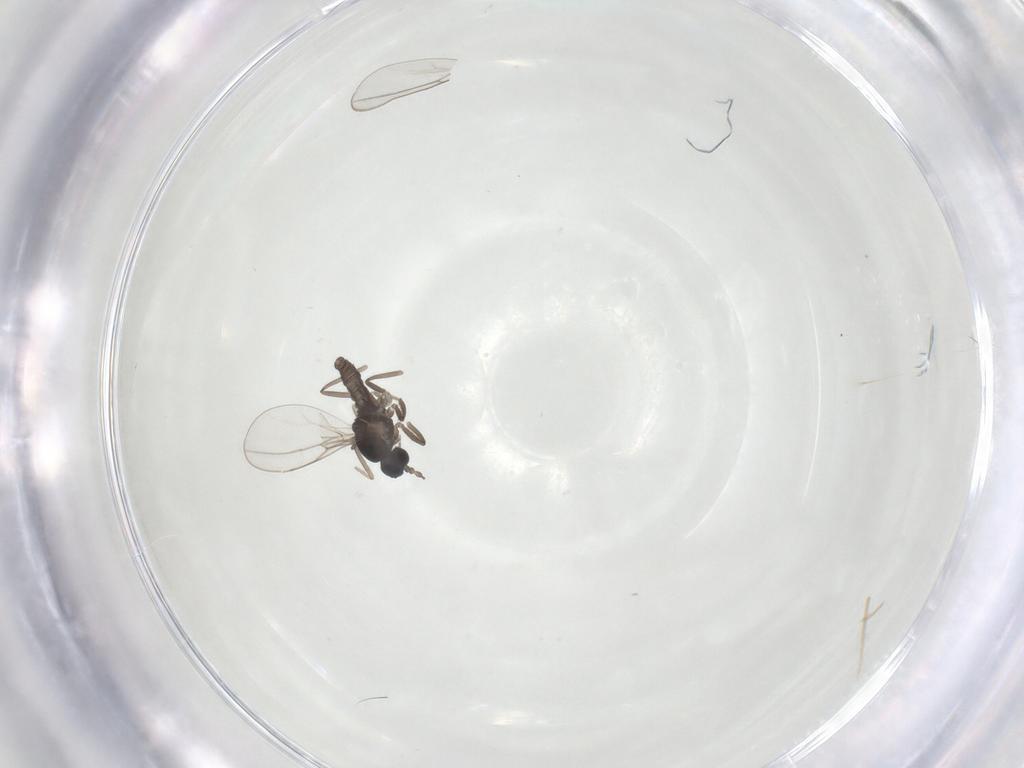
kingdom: Animalia
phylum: Arthropoda
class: Insecta
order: Diptera
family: Cecidomyiidae
